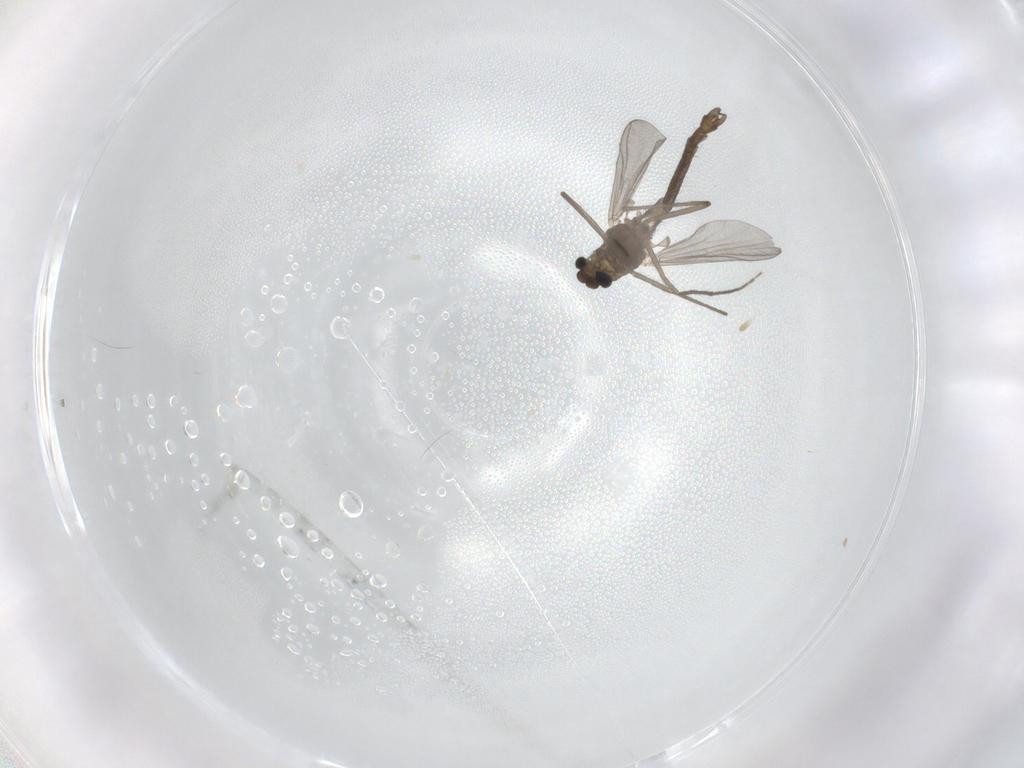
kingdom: Animalia
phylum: Arthropoda
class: Insecta
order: Diptera
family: Chironomidae
